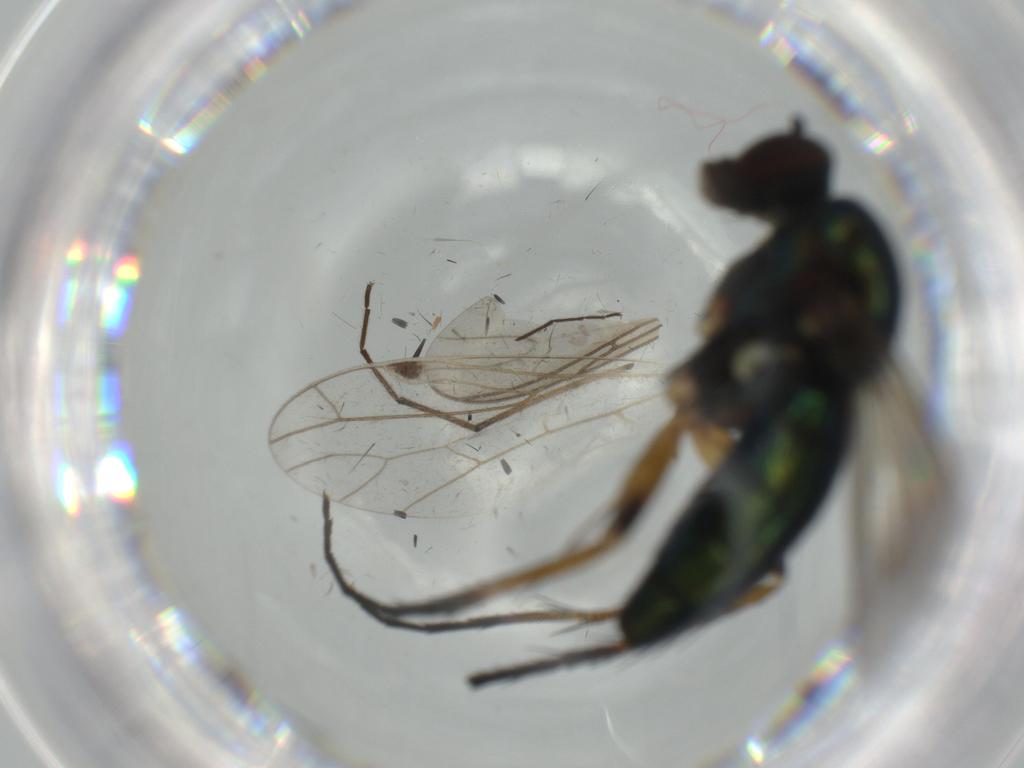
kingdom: Animalia
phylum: Arthropoda
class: Insecta
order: Diptera
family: Dolichopodidae
